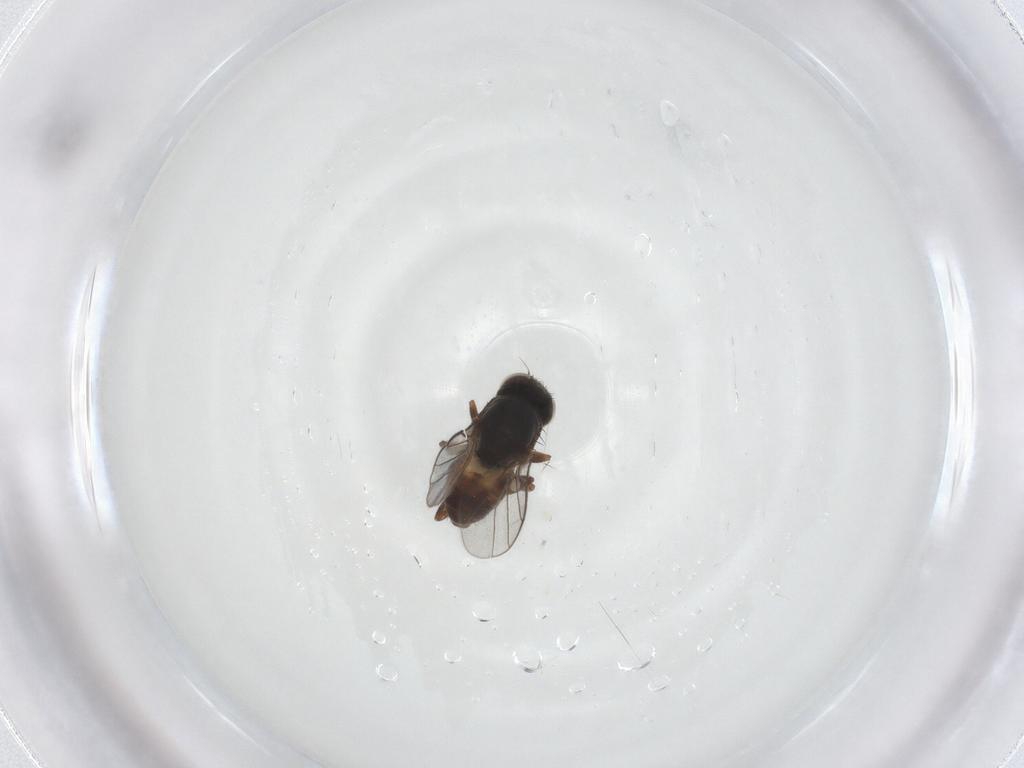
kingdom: Animalia
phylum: Arthropoda
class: Insecta
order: Diptera
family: Chloropidae
